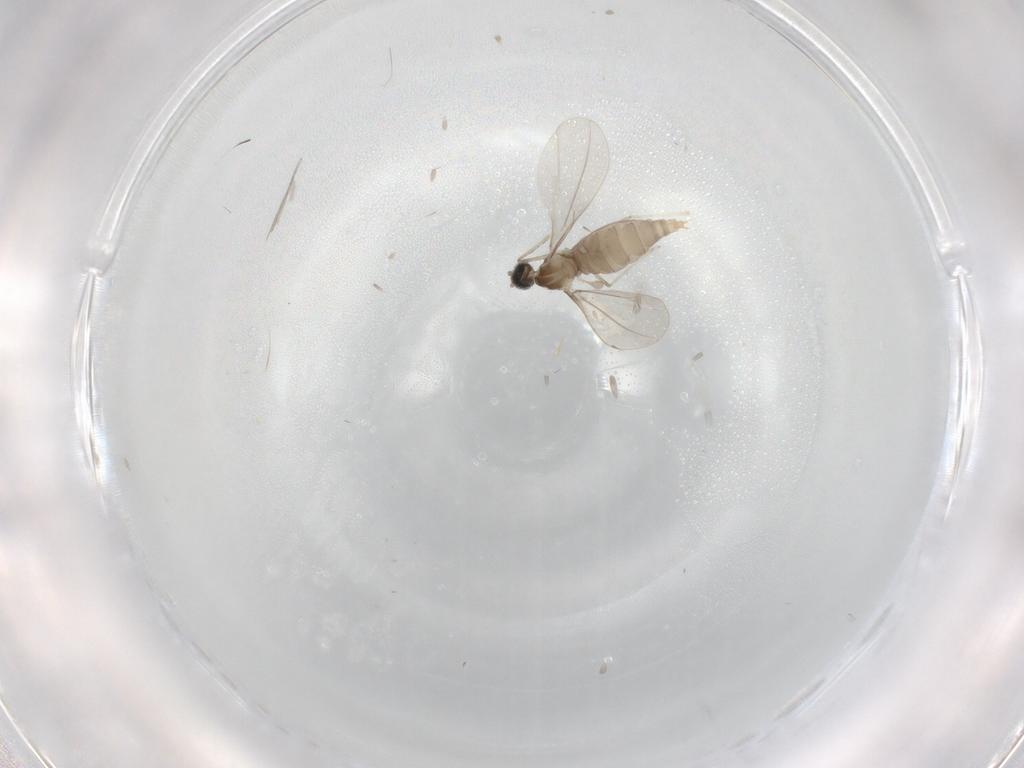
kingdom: Animalia
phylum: Arthropoda
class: Insecta
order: Diptera
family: Cecidomyiidae
